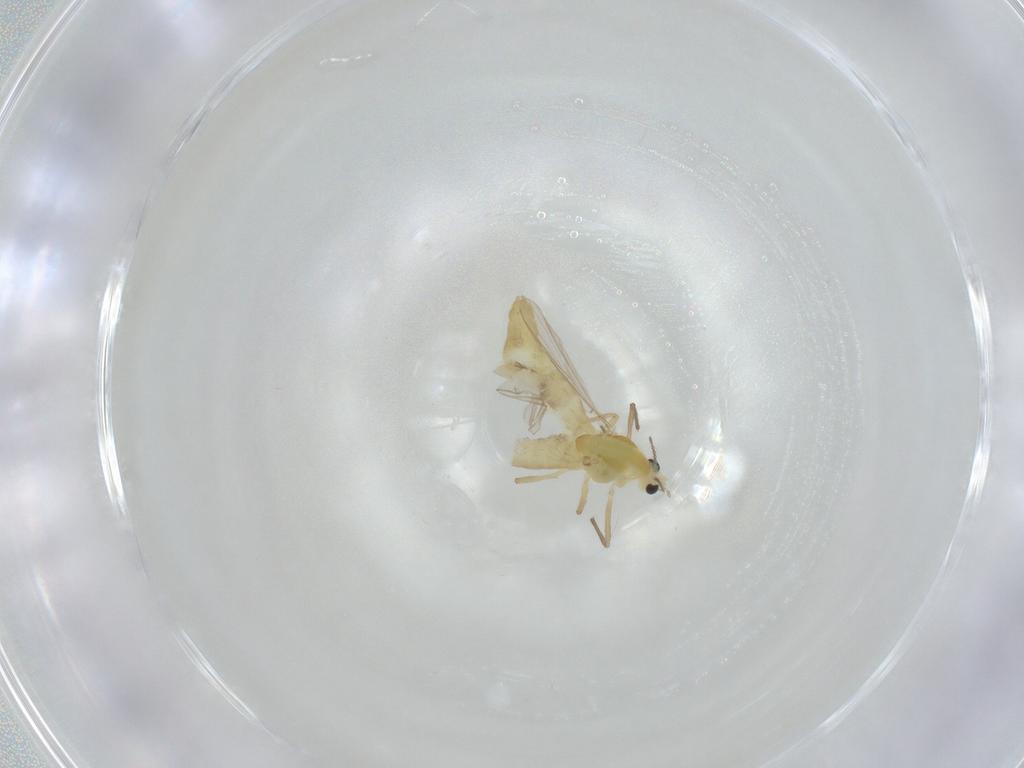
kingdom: Animalia
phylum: Arthropoda
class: Insecta
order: Diptera
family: Chironomidae
